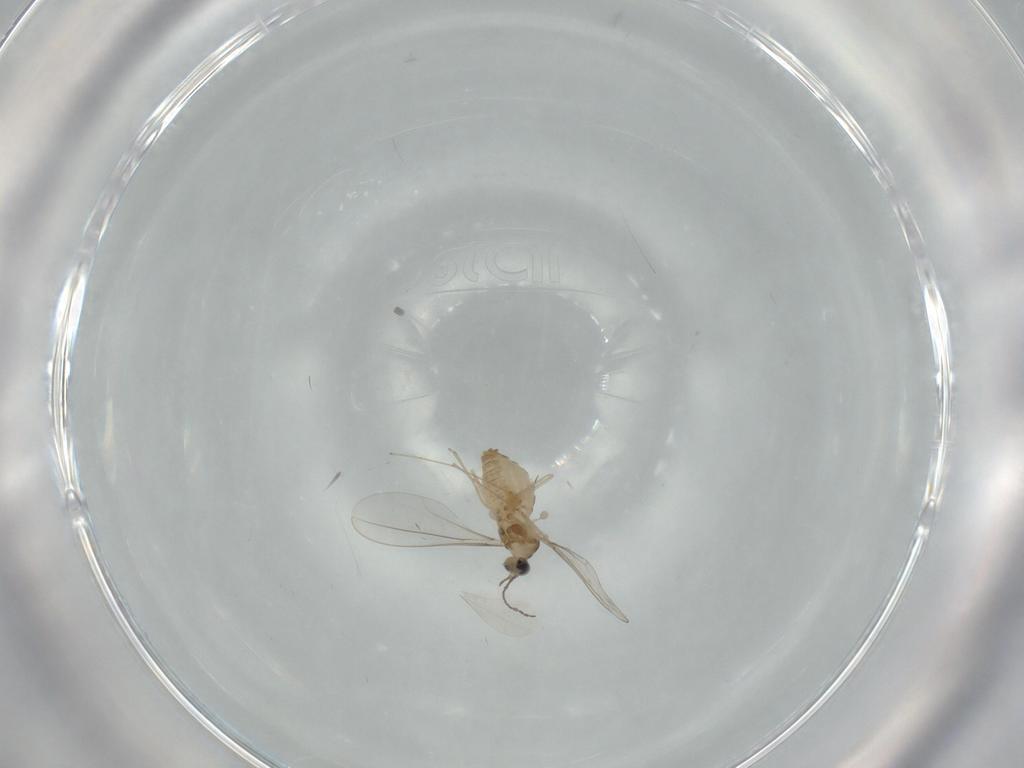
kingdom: Animalia
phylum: Arthropoda
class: Insecta
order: Diptera
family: Cecidomyiidae
